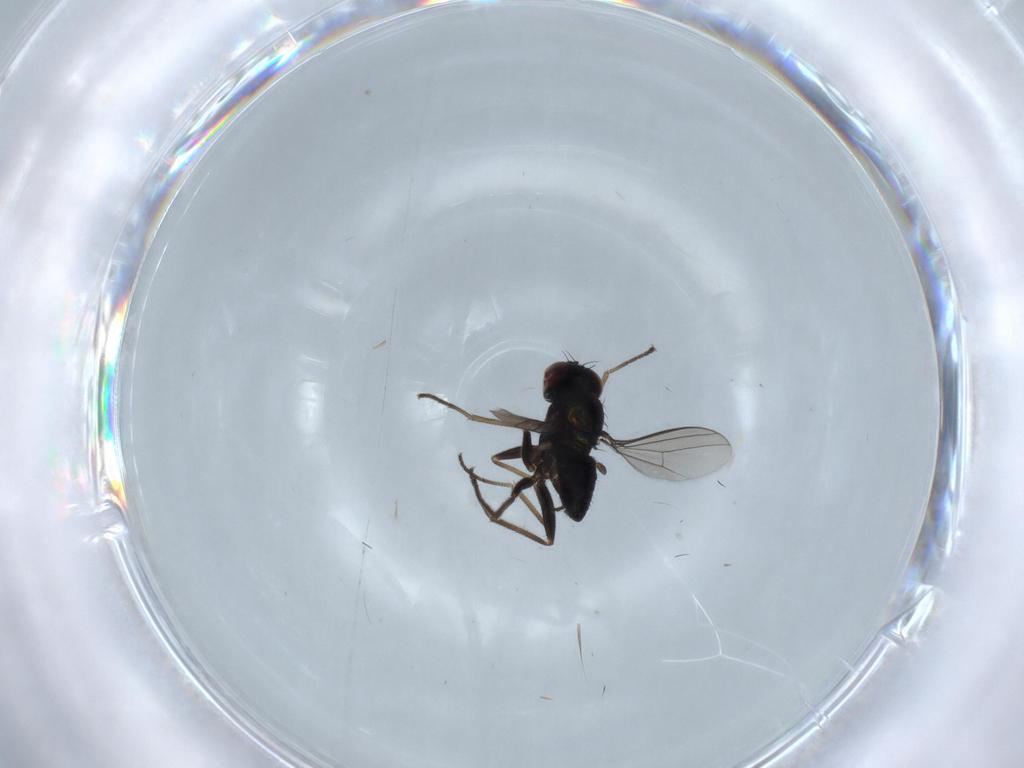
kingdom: Animalia
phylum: Arthropoda
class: Insecta
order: Diptera
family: Dolichopodidae
